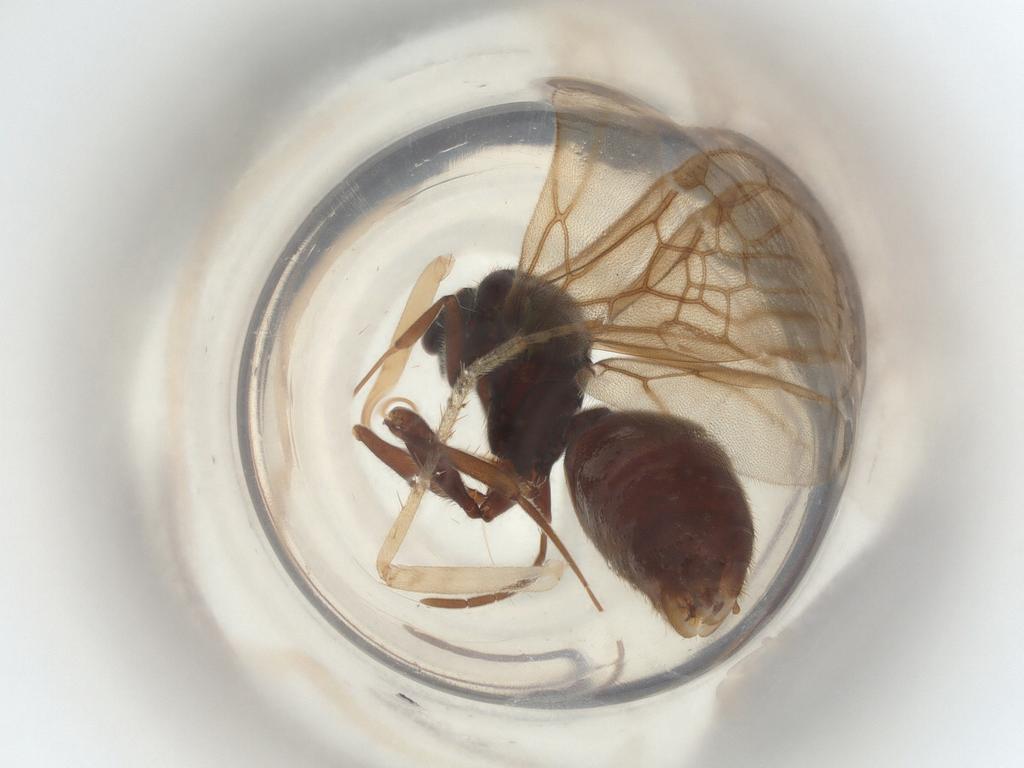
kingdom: Animalia
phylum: Arthropoda
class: Insecta
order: Hymenoptera
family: Formicidae
